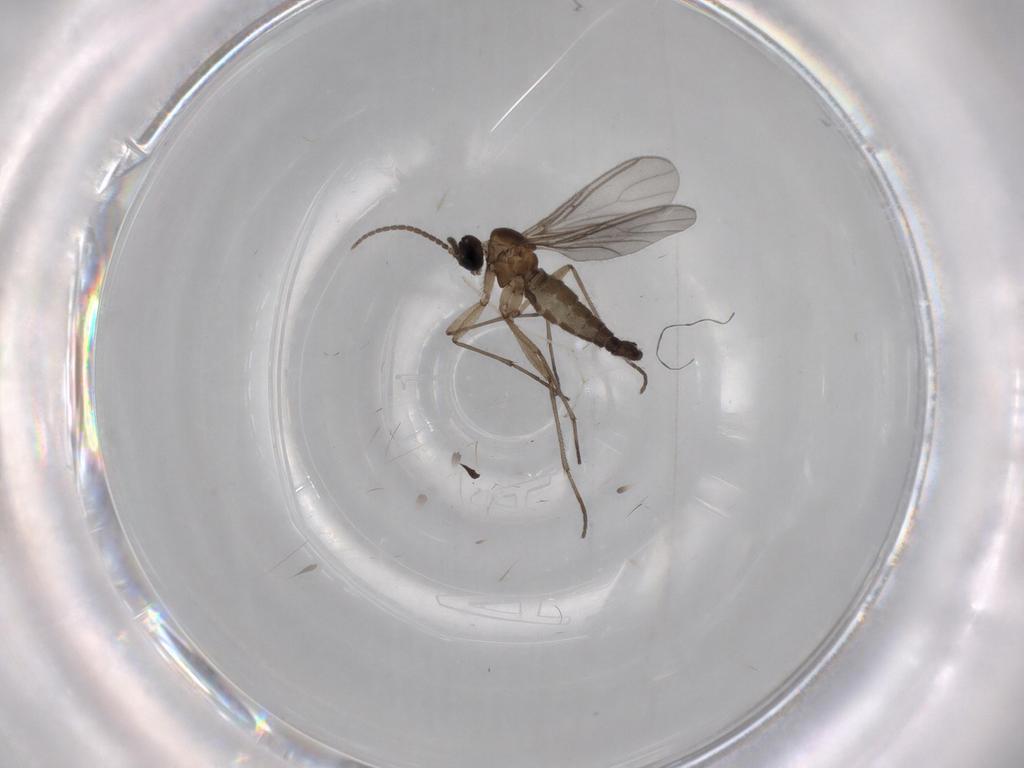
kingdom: Animalia
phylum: Arthropoda
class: Insecta
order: Diptera
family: Cecidomyiidae
